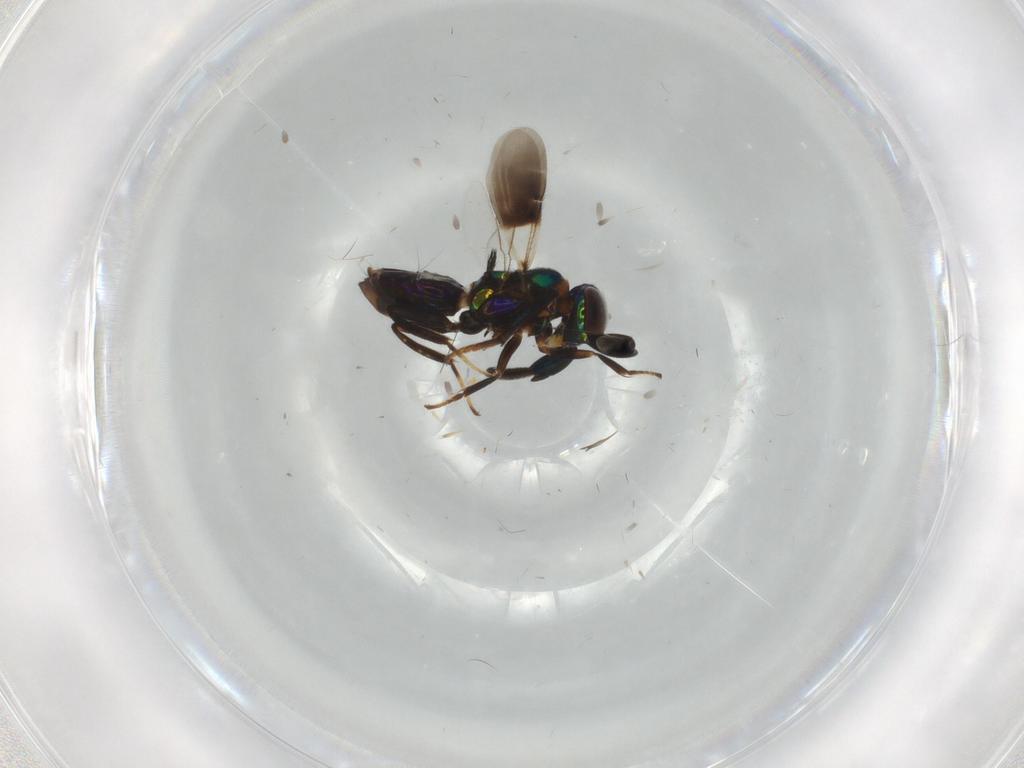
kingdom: Animalia
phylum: Arthropoda
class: Insecta
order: Hymenoptera
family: Encyrtidae
